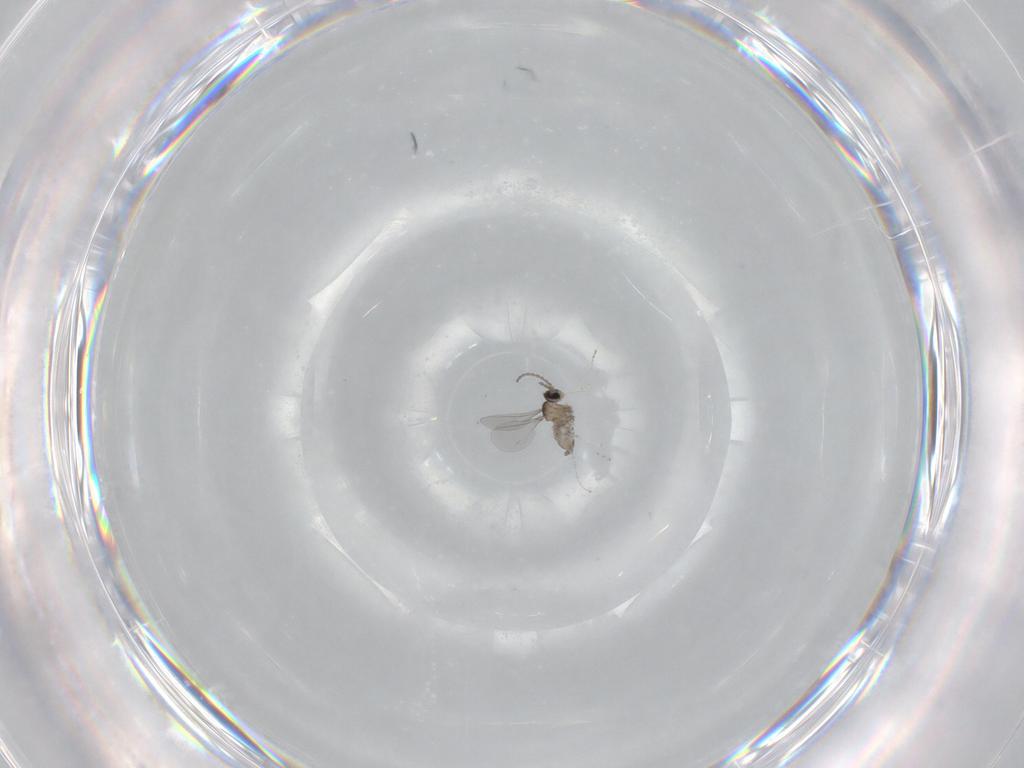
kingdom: Animalia
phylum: Arthropoda
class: Insecta
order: Diptera
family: Cecidomyiidae
